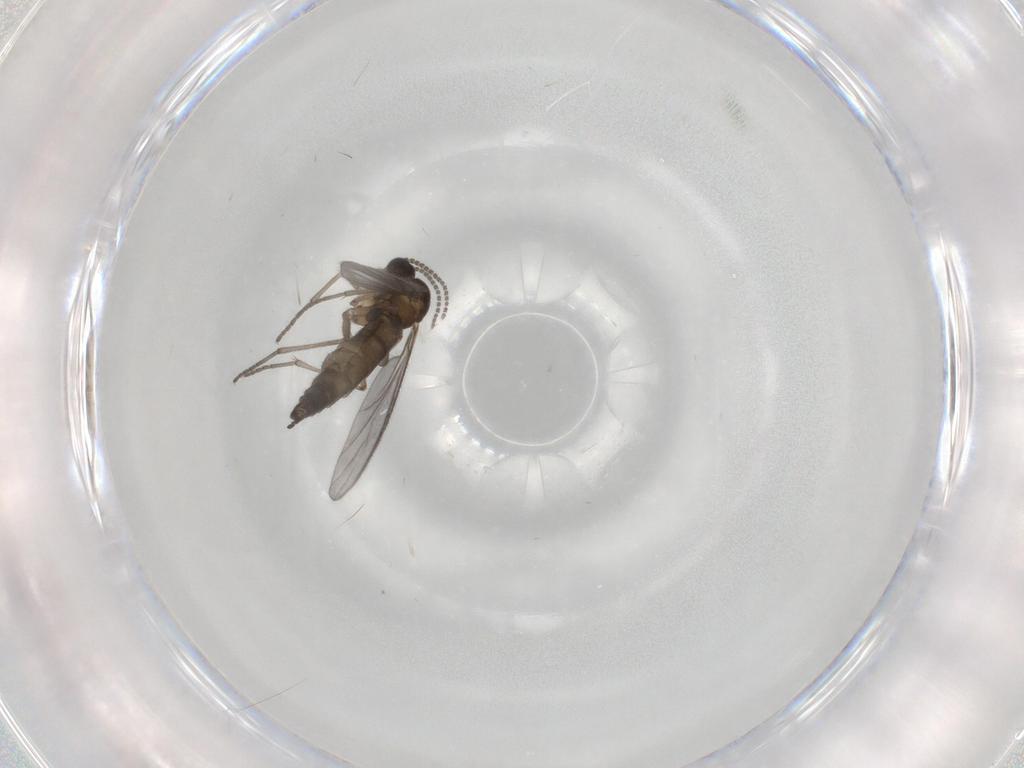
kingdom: Animalia
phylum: Arthropoda
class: Insecta
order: Diptera
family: Sciaridae
